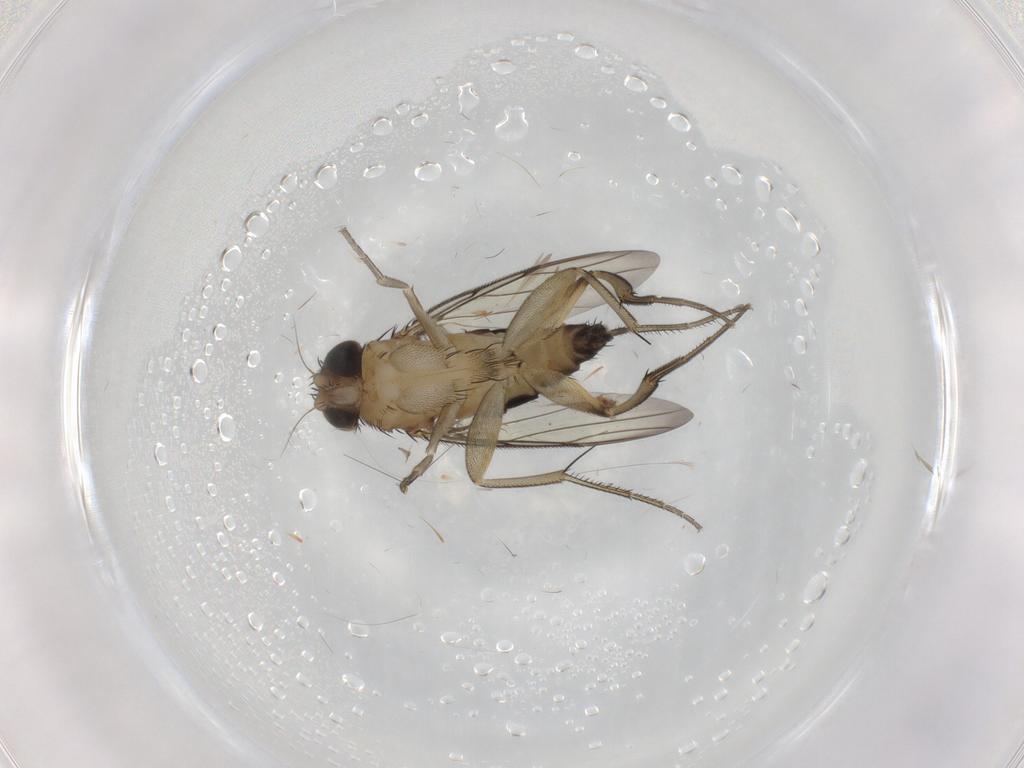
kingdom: Animalia
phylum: Arthropoda
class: Insecta
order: Diptera
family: Phoridae
